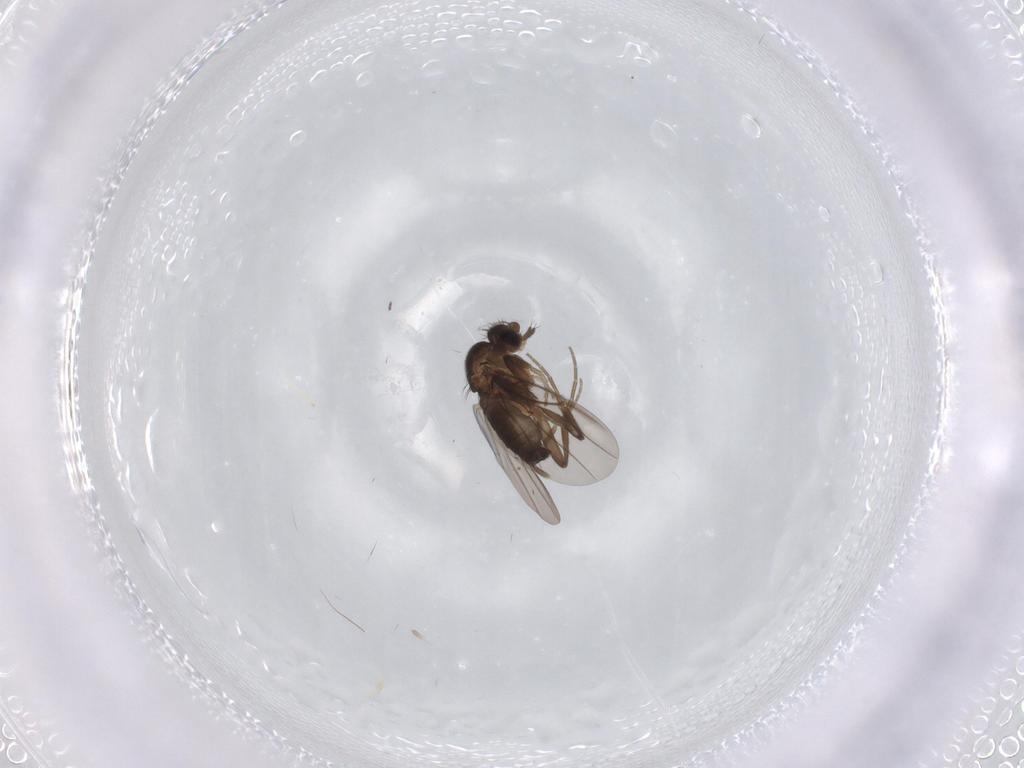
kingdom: Animalia
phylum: Arthropoda
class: Insecta
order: Diptera
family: Phoridae
